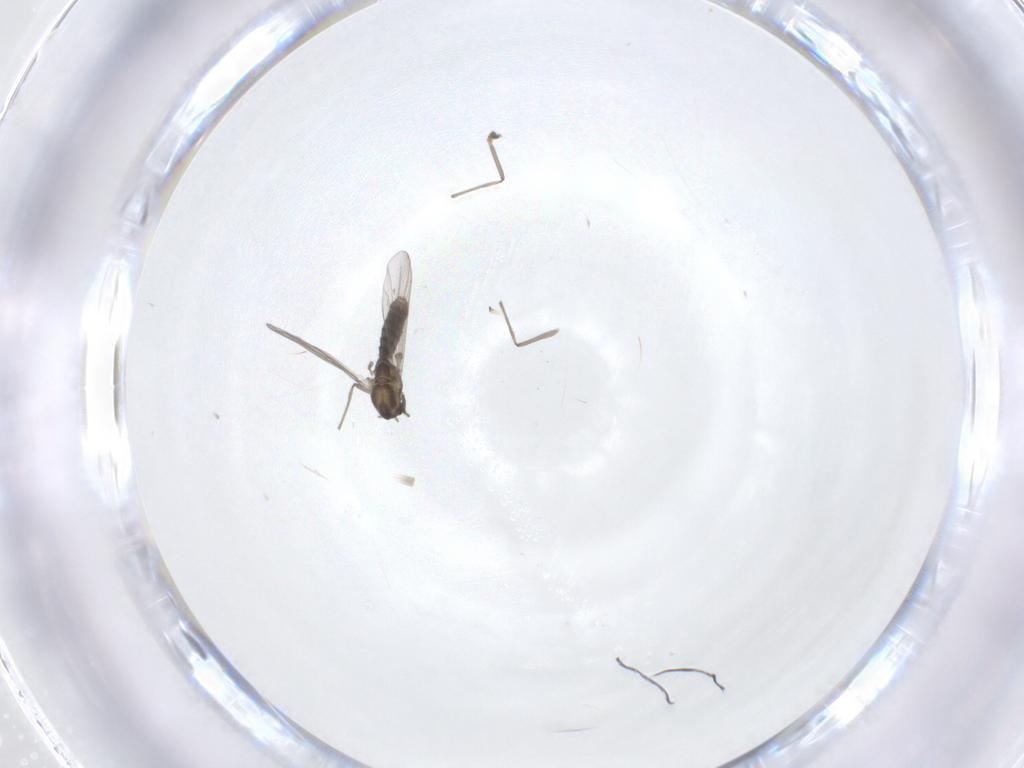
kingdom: Animalia
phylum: Arthropoda
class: Insecta
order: Diptera
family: Chironomidae
